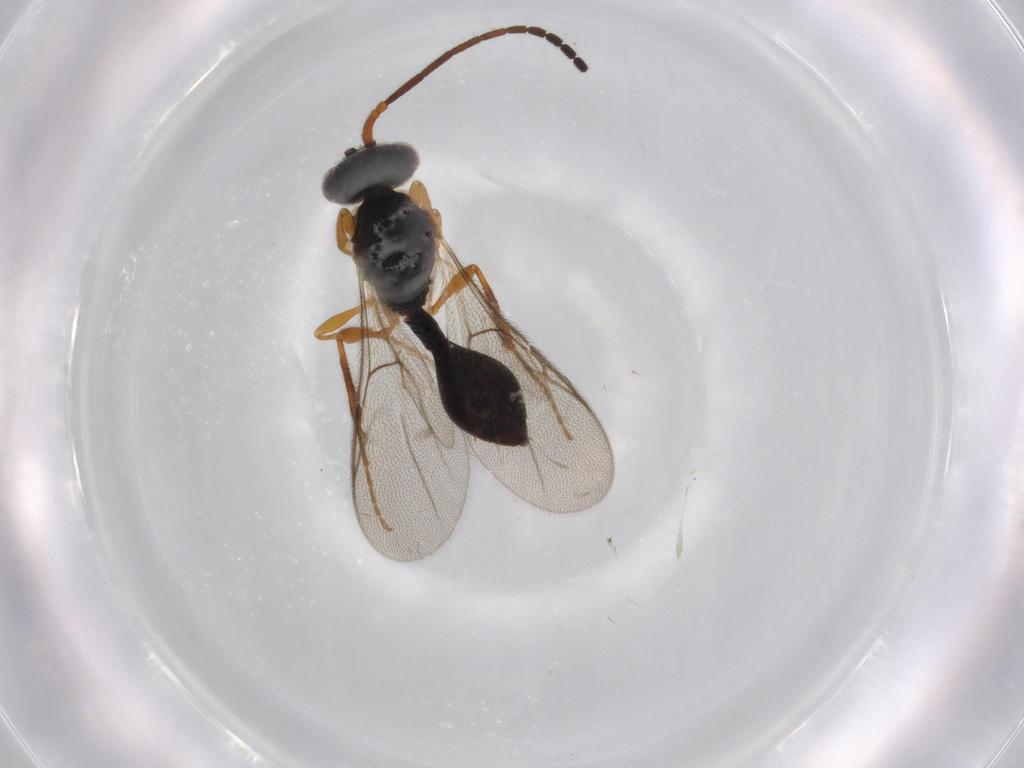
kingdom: Animalia
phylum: Arthropoda
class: Insecta
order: Hymenoptera
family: Diapriidae
